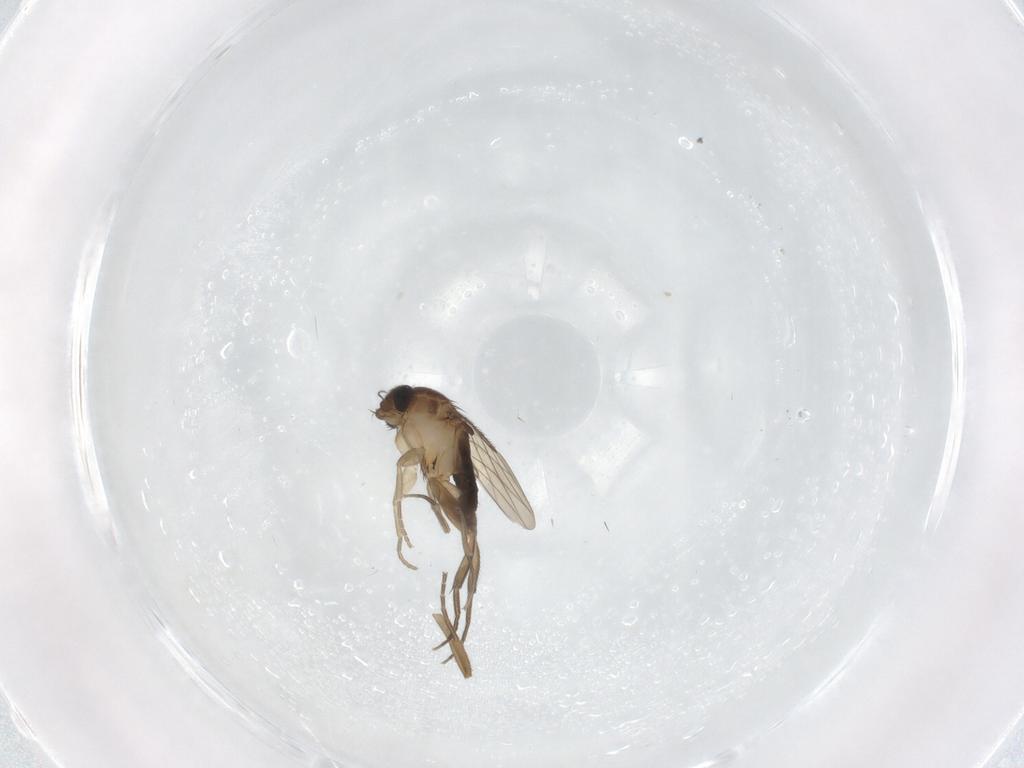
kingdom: Animalia
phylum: Arthropoda
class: Insecta
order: Diptera
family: Phoridae
